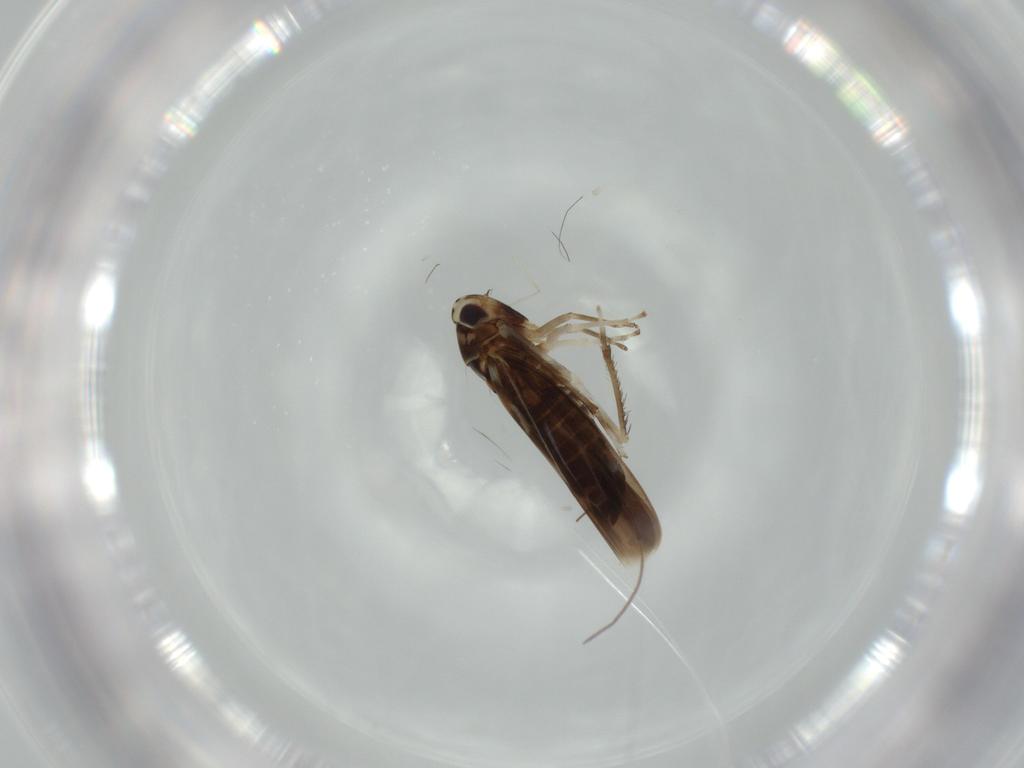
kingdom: Animalia
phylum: Arthropoda
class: Insecta
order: Hemiptera
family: Cicadellidae
